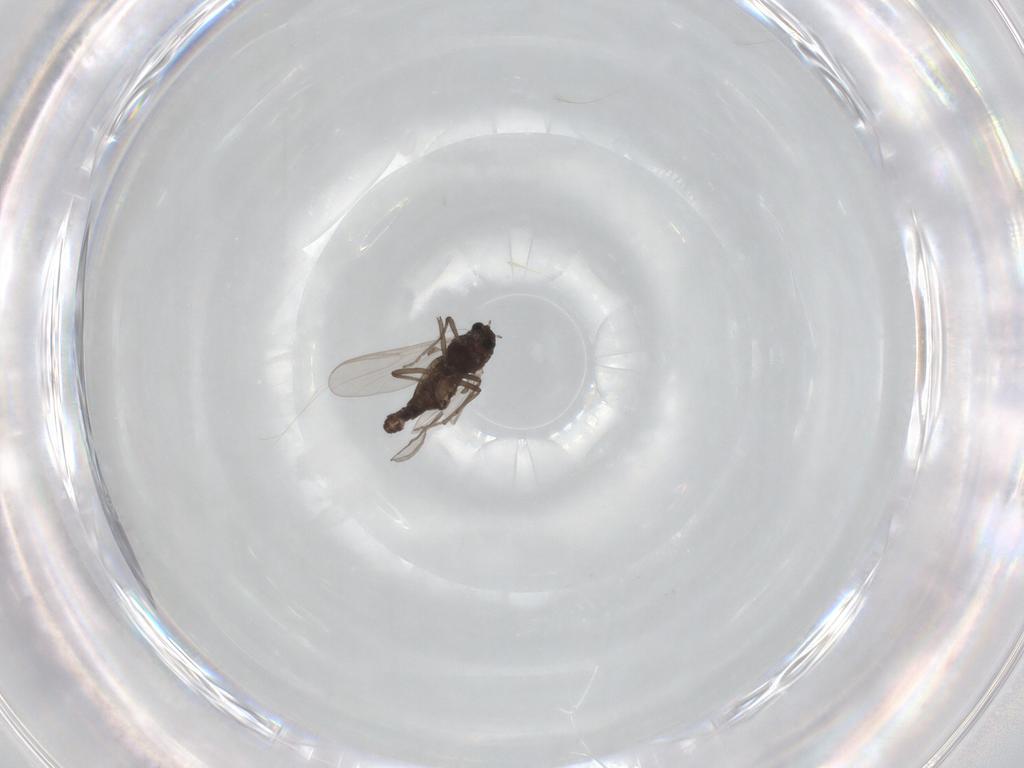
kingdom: Animalia
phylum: Arthropoda
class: Insecta
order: Diptera
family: Chironomidae
